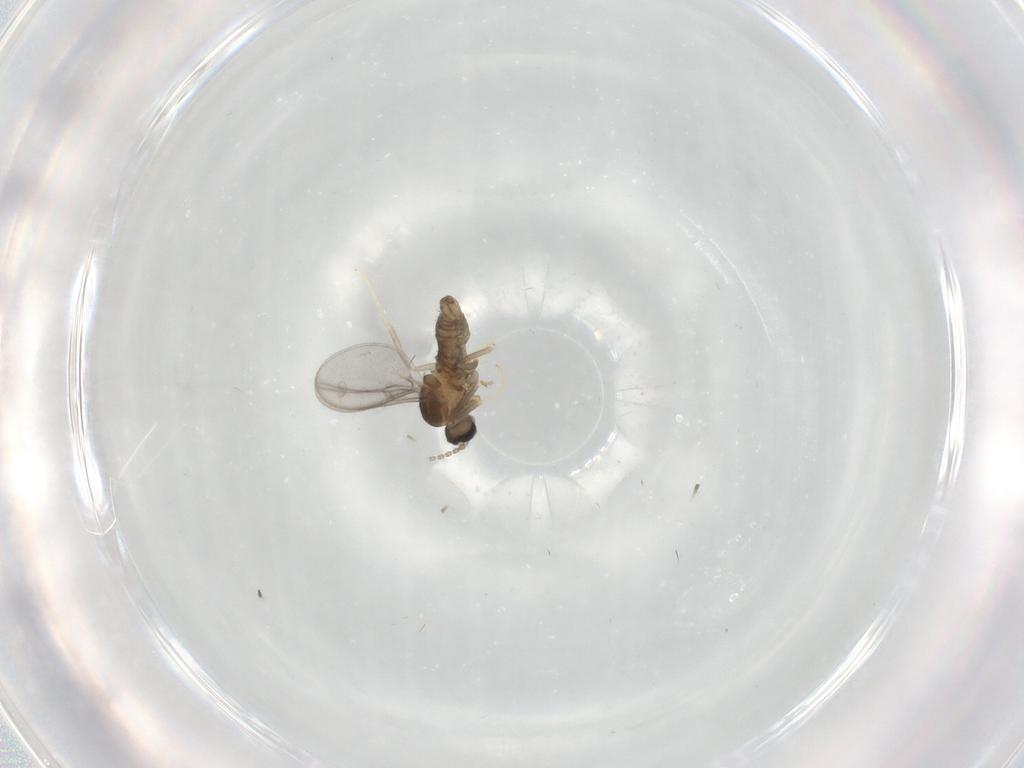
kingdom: Animalia
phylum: Arthropoda
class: Insecta
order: Diptera
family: Cecidomyiidae
